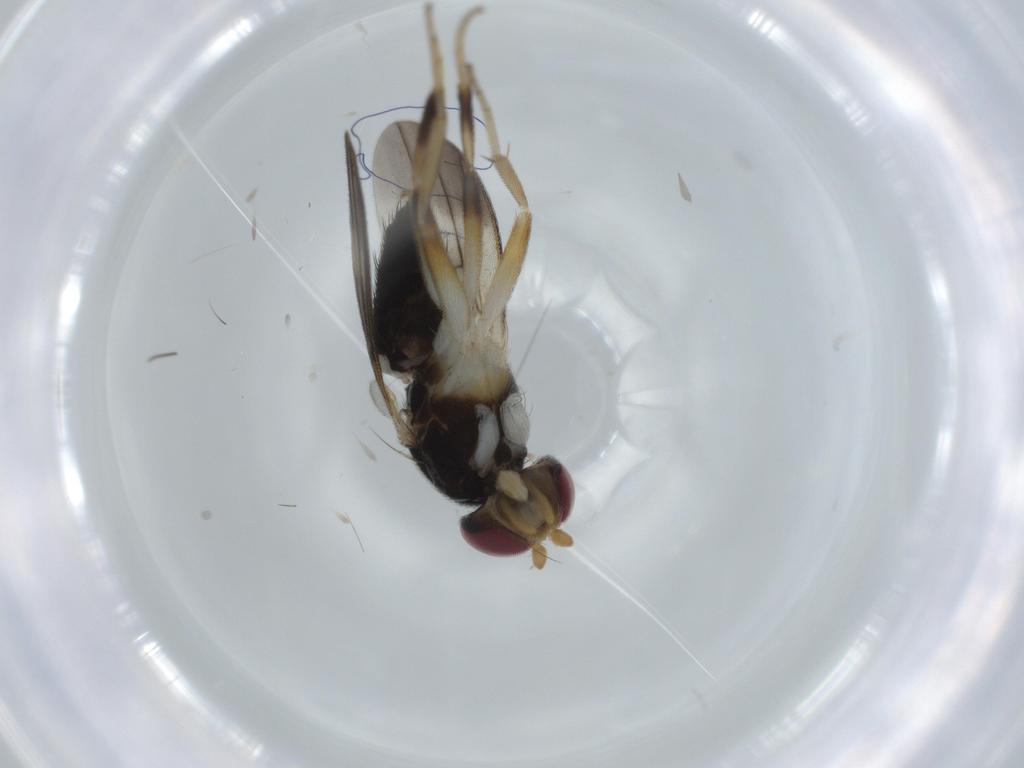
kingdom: Animalia
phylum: Arthropoda
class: Insecta
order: Diptera
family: Clusiidae
